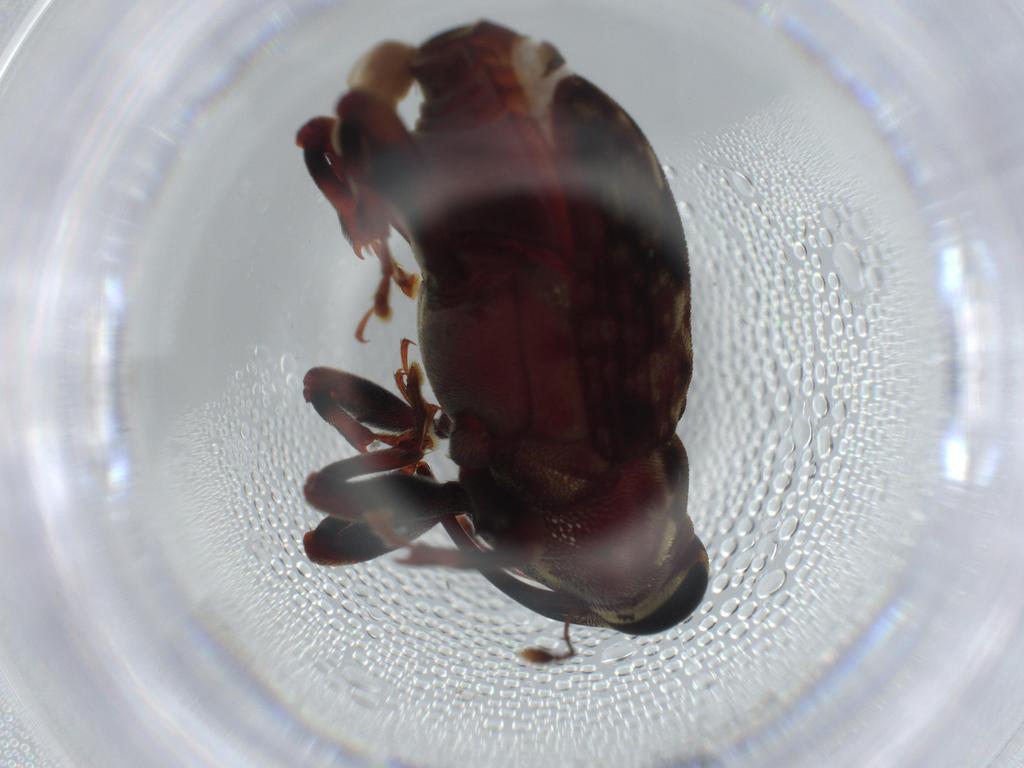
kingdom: Animalia
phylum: Arthropoda
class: Insecta
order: Coleoptera
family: Curculionidae
